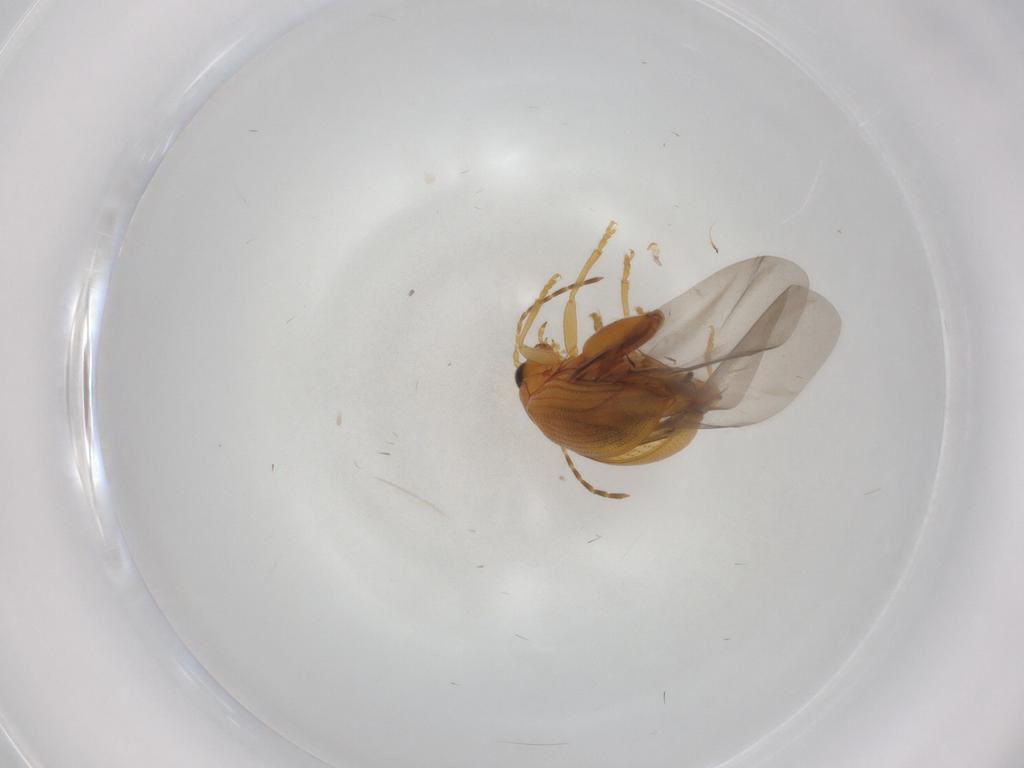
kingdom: Animalia
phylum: Arthropoda
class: Insecta
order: Coleoptera
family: Chrysomelidae
